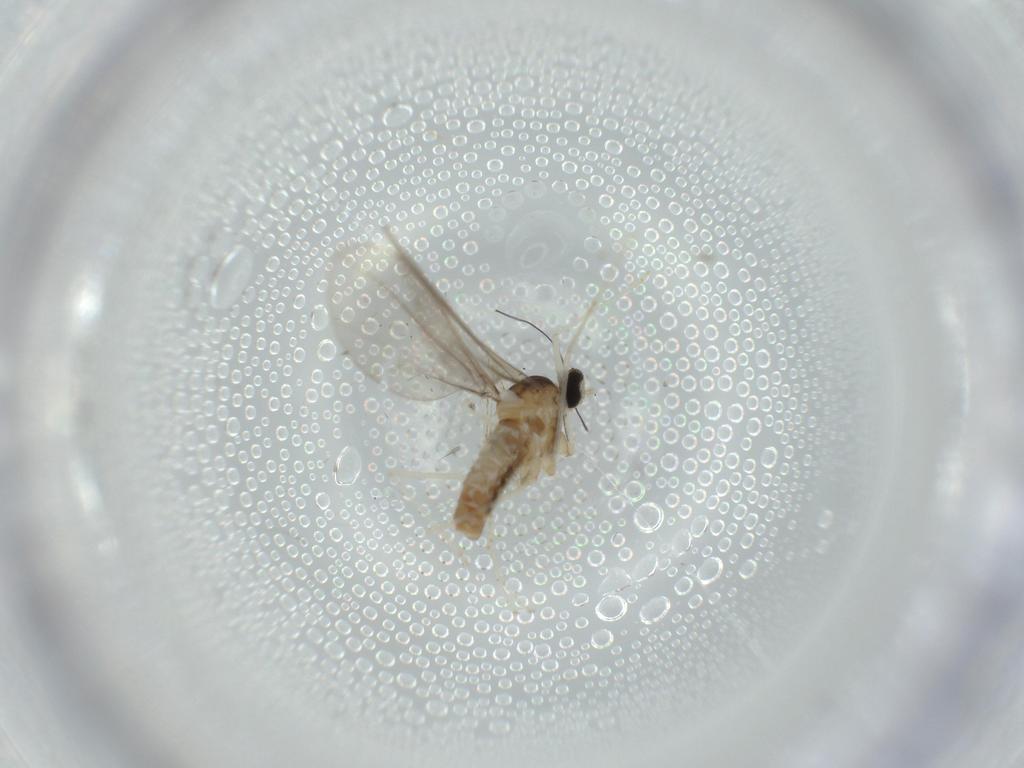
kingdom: Animalia
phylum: Arthropoda
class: Insecta
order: Diptera
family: Cecidomyiidae
